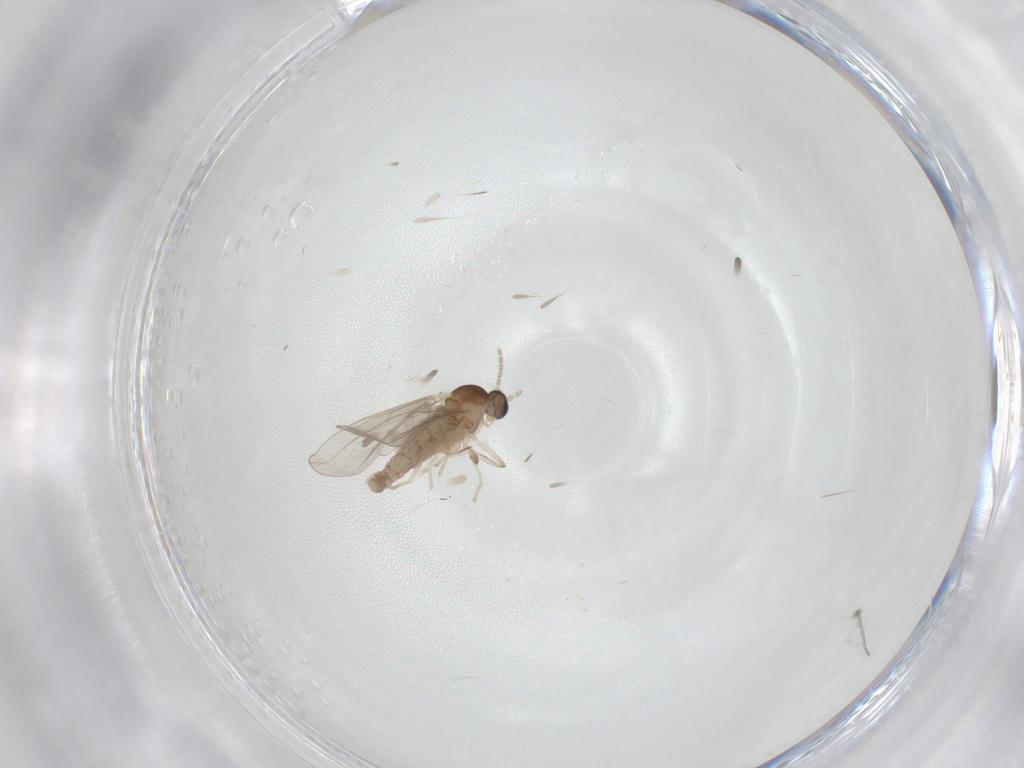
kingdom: Animalia
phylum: Arthropoda
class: Insecta
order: Diptera
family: Cecidomyiidae
